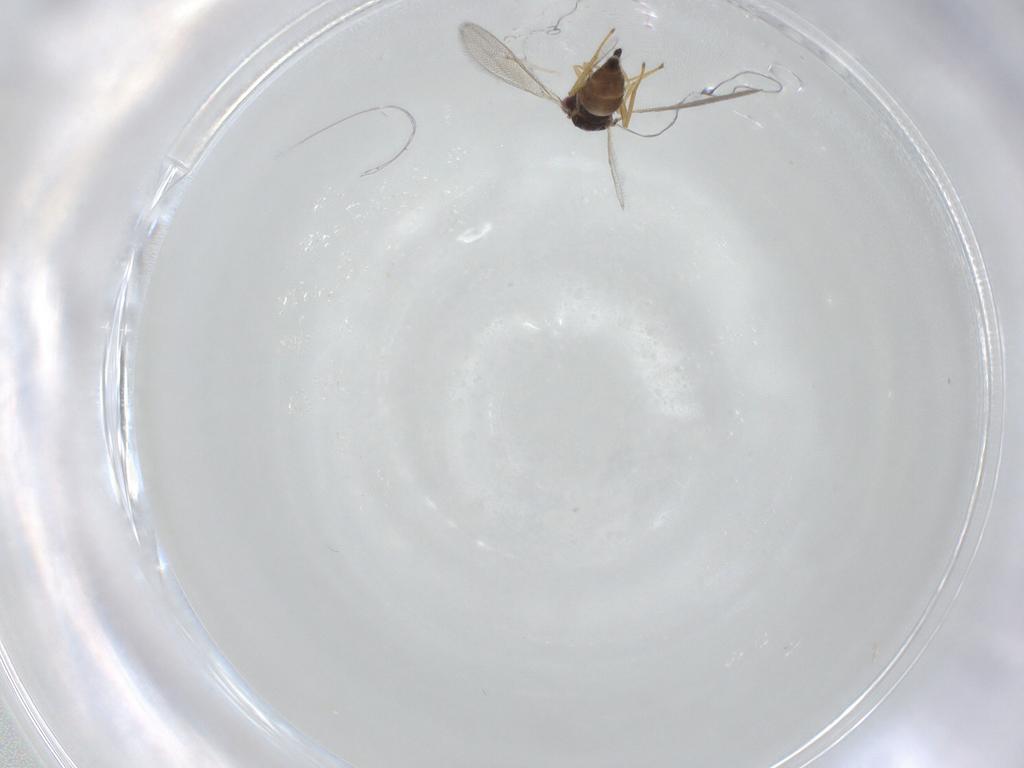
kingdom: Animalia
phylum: Arthropoda
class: Insecta
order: Hymenoptera
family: Eulophidae
